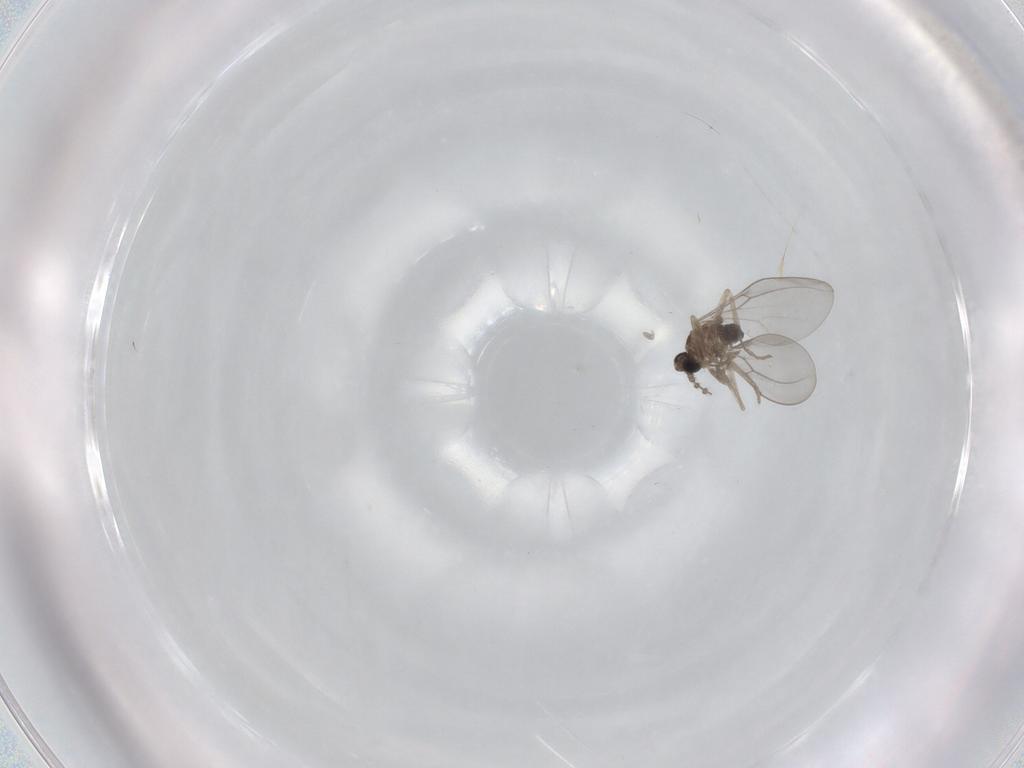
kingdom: Animalia
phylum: Arthropoda
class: Insecta
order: Diptera
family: Cecidomyiidae
